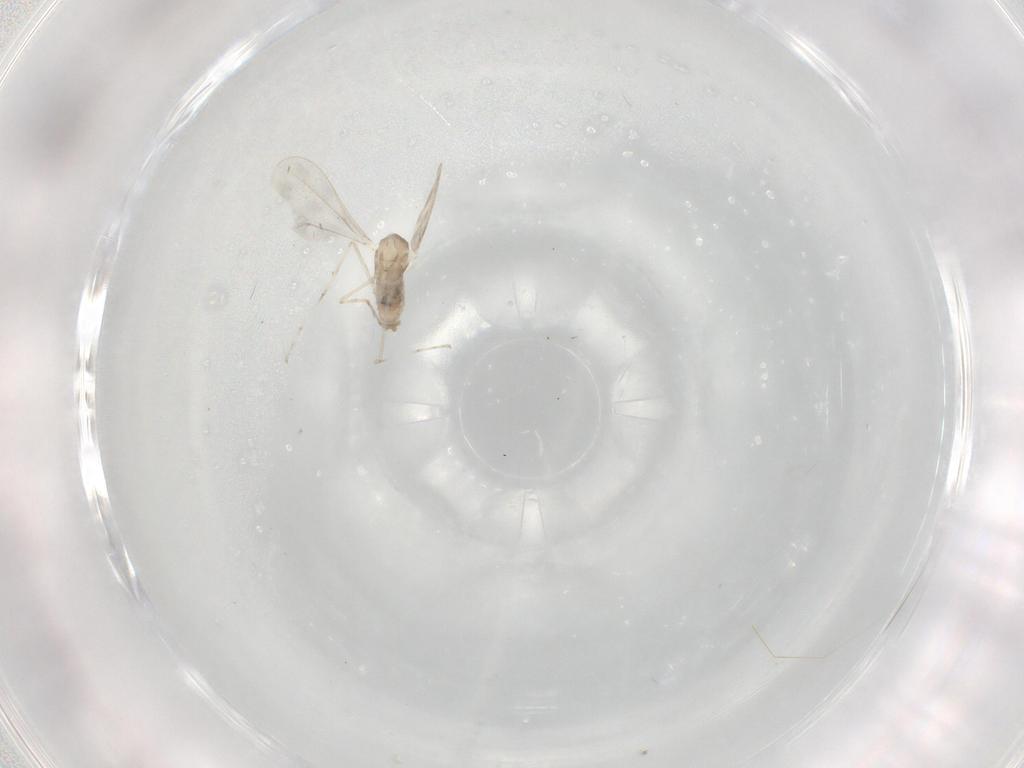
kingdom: Animalia
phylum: Arthropoda
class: Insecta
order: Diptera
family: Cecidomyiidae
